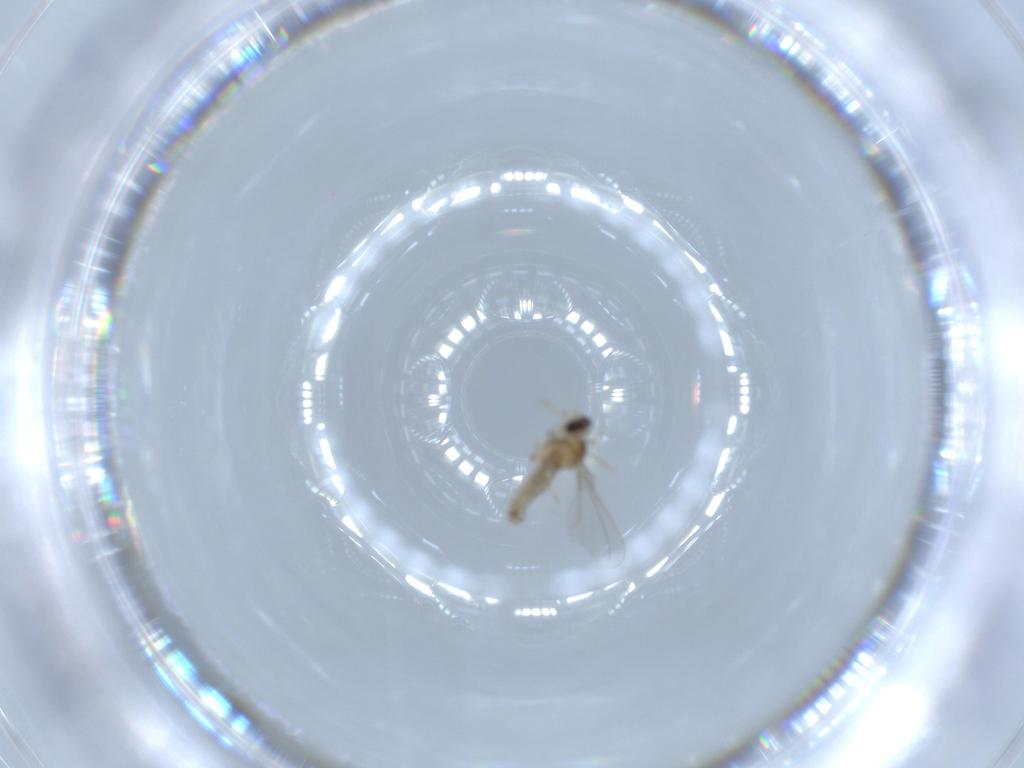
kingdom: Animalia
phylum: Arthropoda
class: Insecta
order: Diptera
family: Cecidomyiidae
